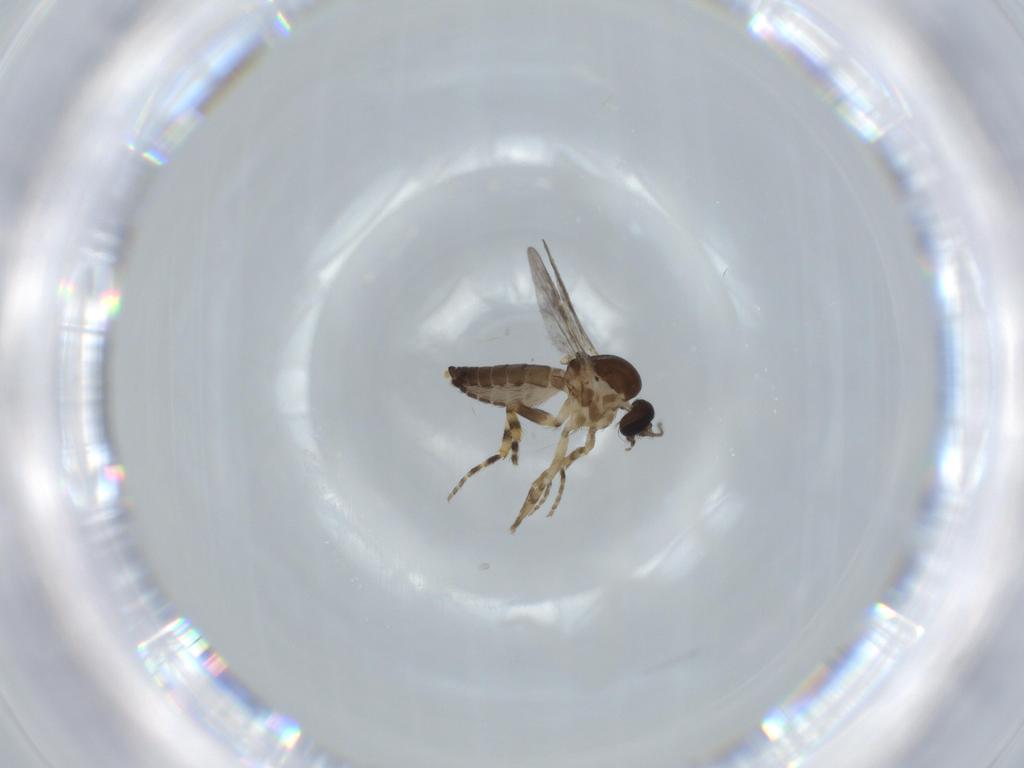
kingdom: Animalia
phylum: Arthropoda
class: Insecta
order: Diptera
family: Ceratopogonidae
